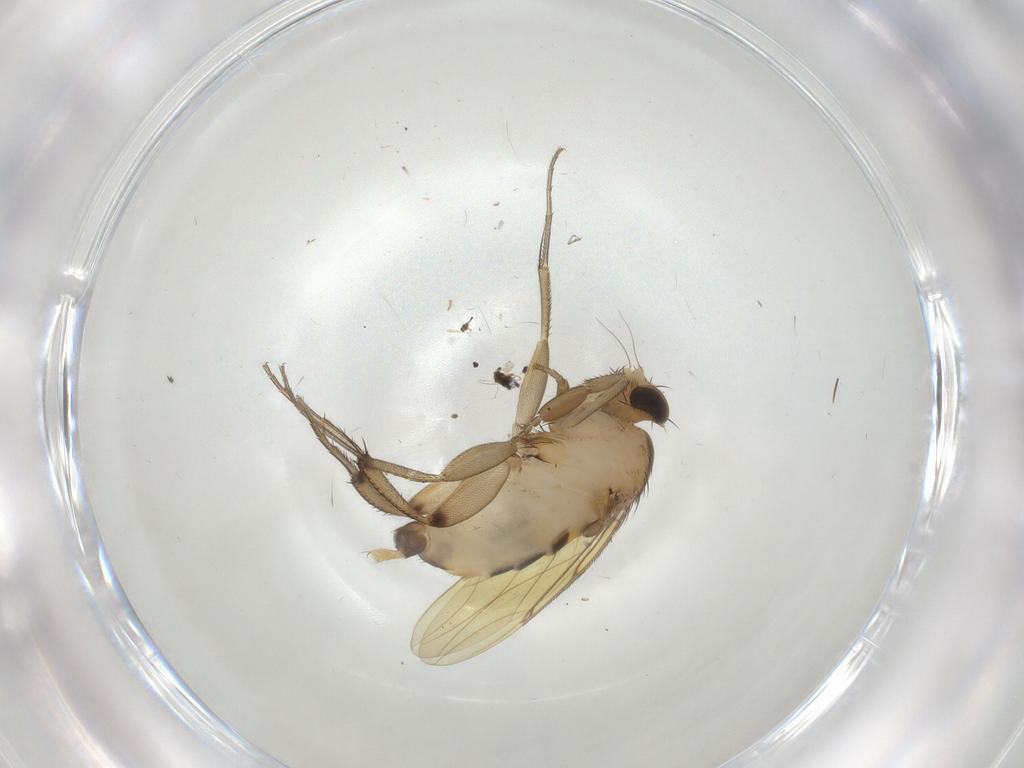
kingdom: Animalia
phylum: Arthropoda
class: Insecta
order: Diptera
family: Phoridae
